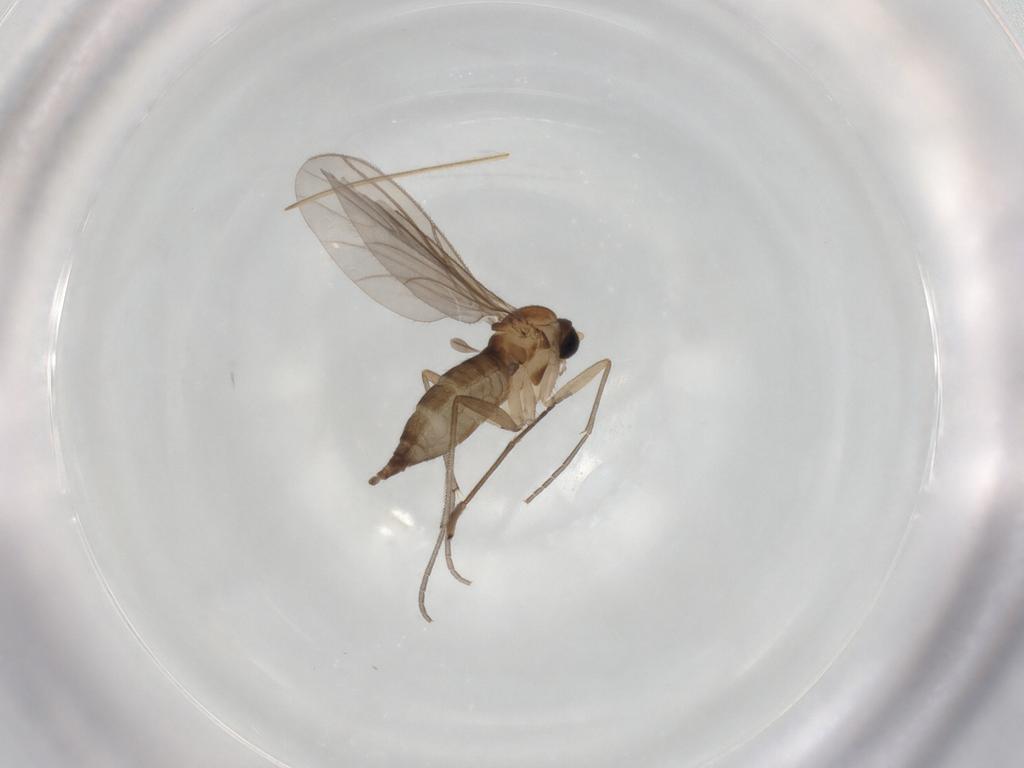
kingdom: Animalia
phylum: Arthropoda
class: Insecta
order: Diptera
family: Sciaridae
